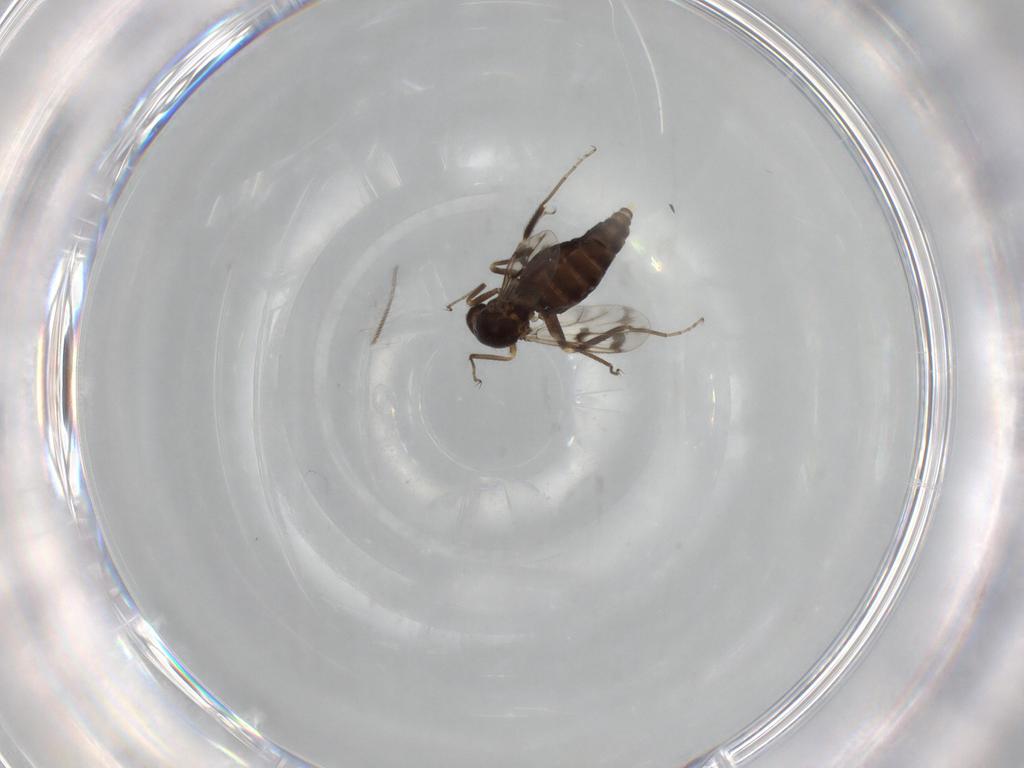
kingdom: Animalia
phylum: Arthropoda
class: Insecta
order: Diptera
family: Ceratopogonidae
